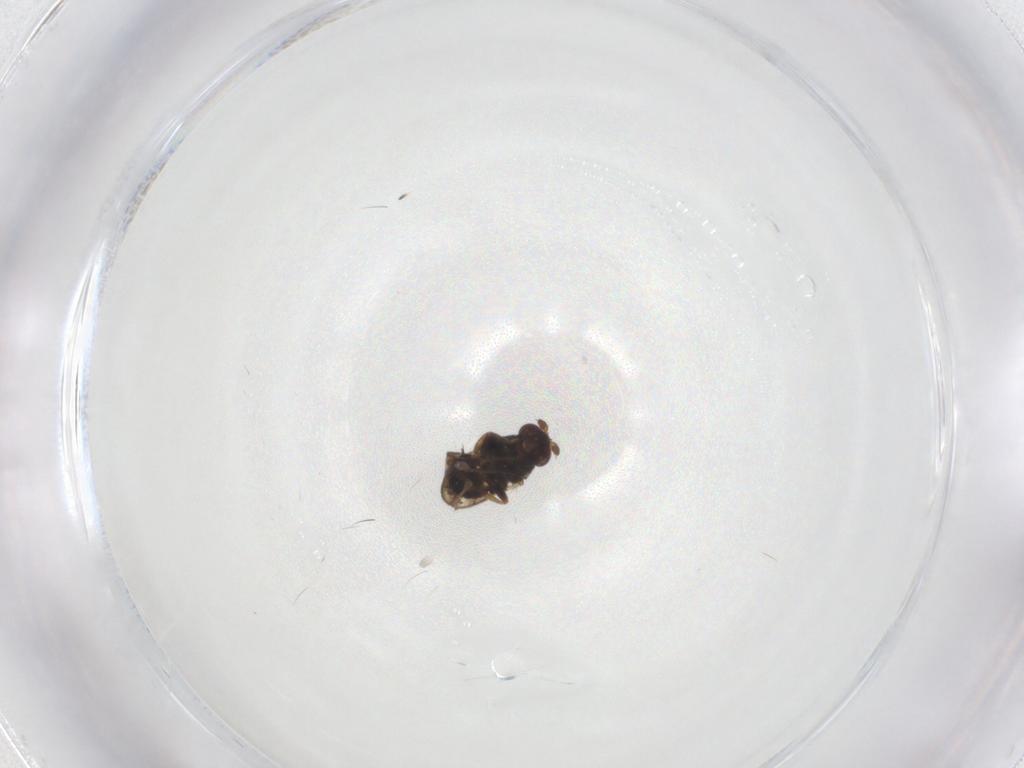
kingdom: Animalia
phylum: Arthropoda
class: Insecta
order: Diptera
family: Sphaeroceridae
